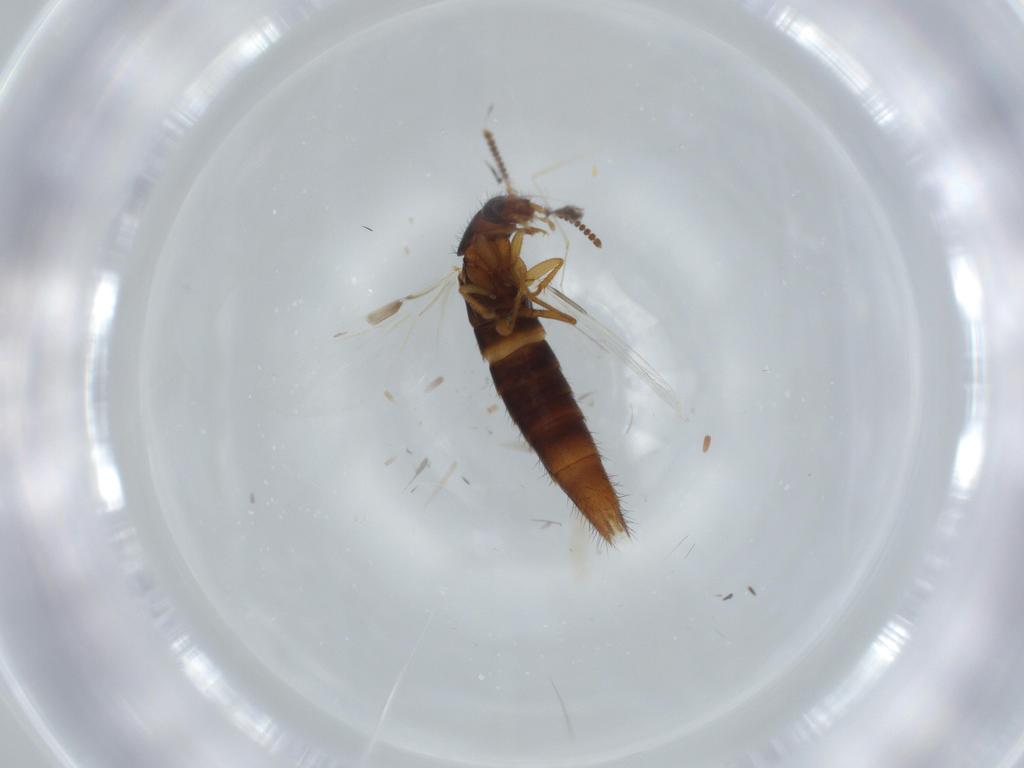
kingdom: Animalia
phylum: Arthropoda
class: Insecta
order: Coleoptera
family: Staphylinidae
